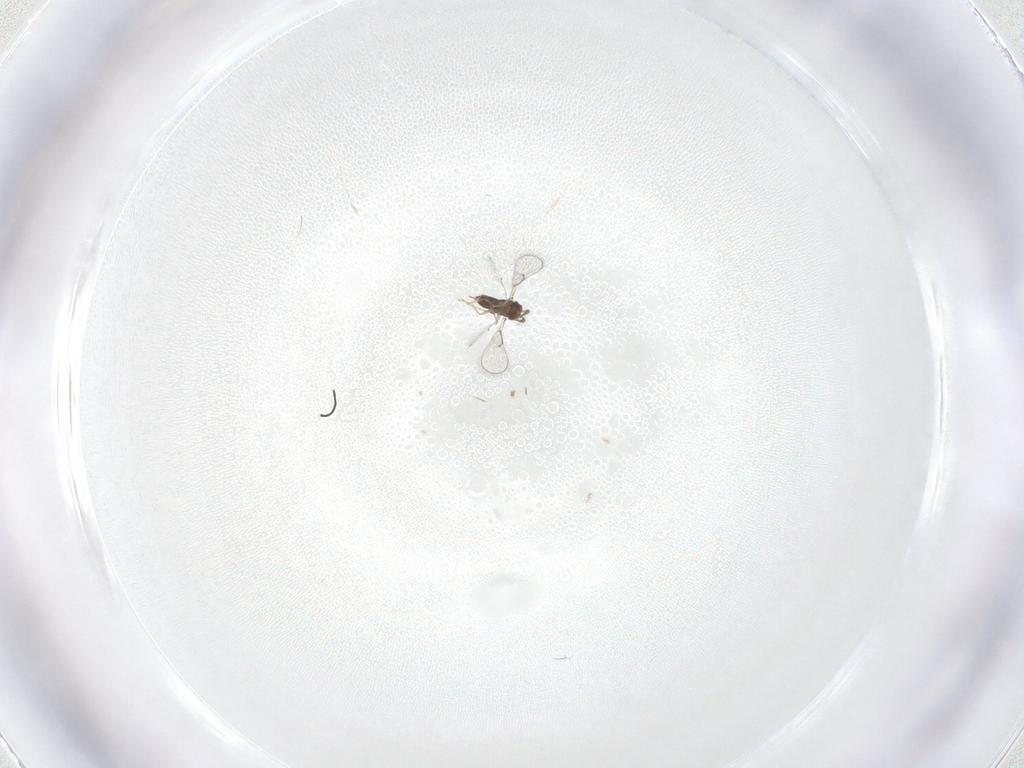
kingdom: Animalia
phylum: Arthropoda
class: Insecta
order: Hymenoptera
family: Trichogrammatidae
